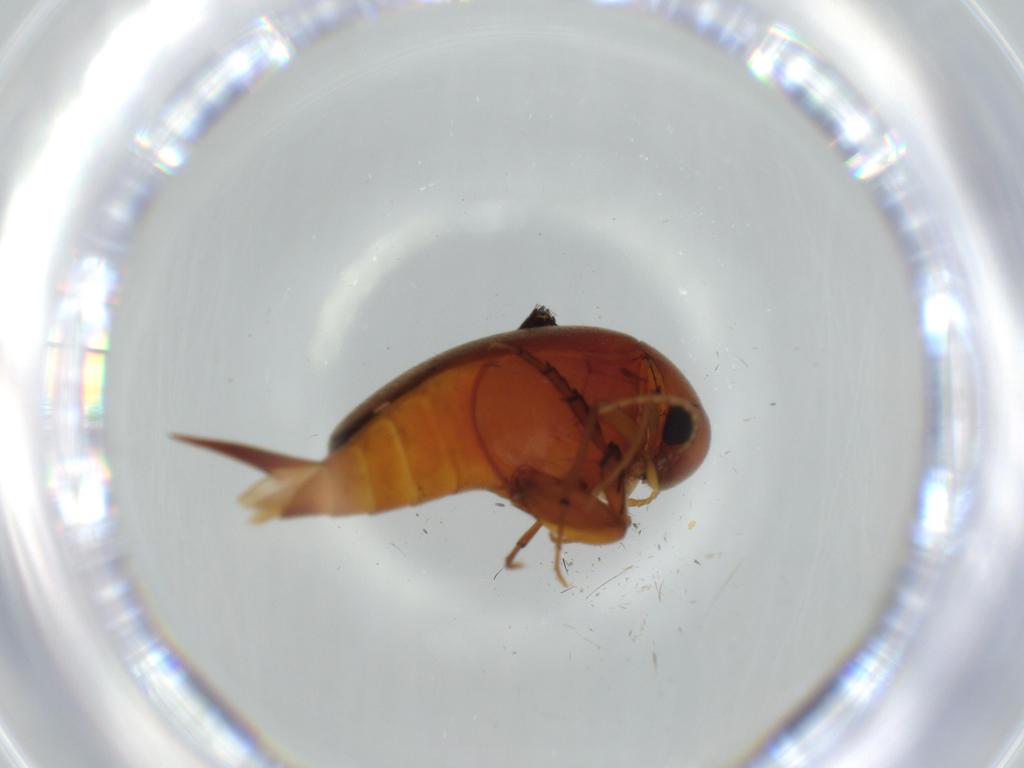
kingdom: Animalia
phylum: Arthropoda
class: Insecta
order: Coleoptera
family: Mordellidae
